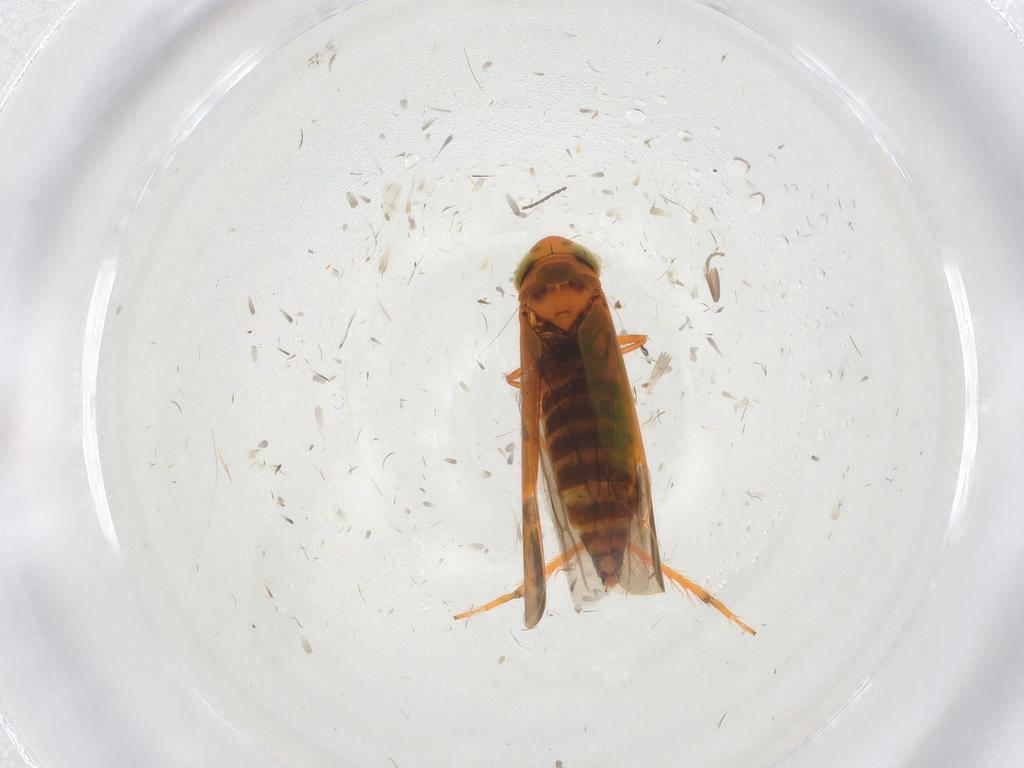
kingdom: Animalia
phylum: Arthropoda
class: Insecta
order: Hemiptera
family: Cicadellidae
